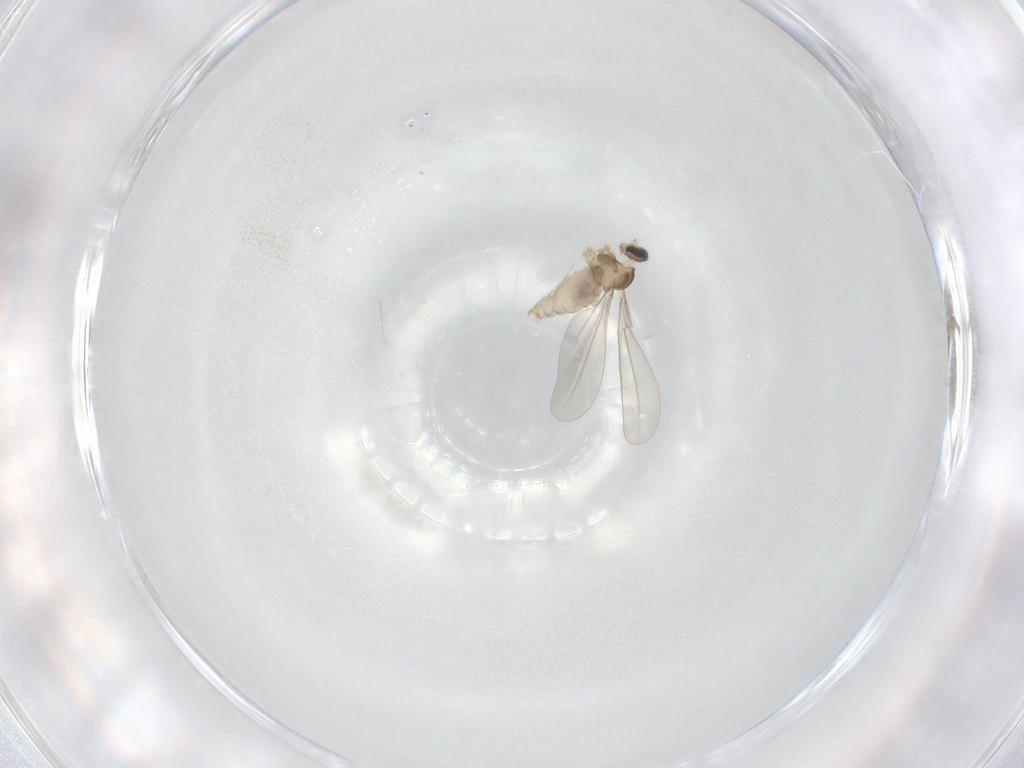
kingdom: Animalia
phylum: Arthropoda
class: Insecta
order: Diptera
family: Cecidomyiidae
